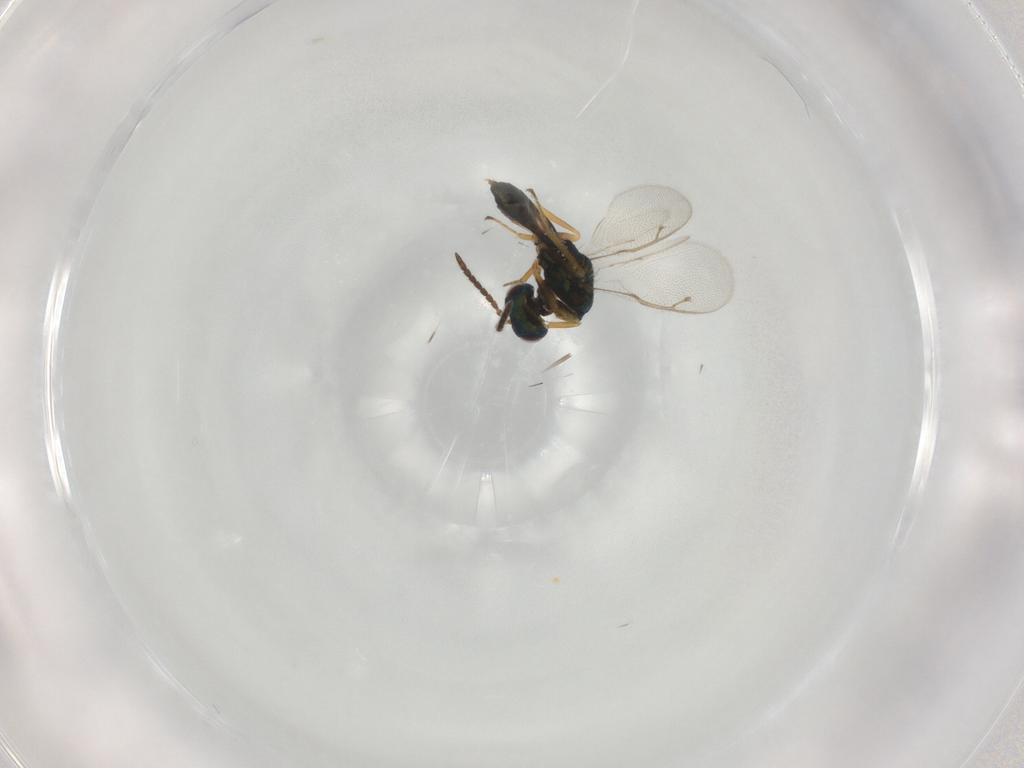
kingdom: Animalia
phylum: Arthropoda
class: Insecta
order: Hymenoptera
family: Pteromalidae
